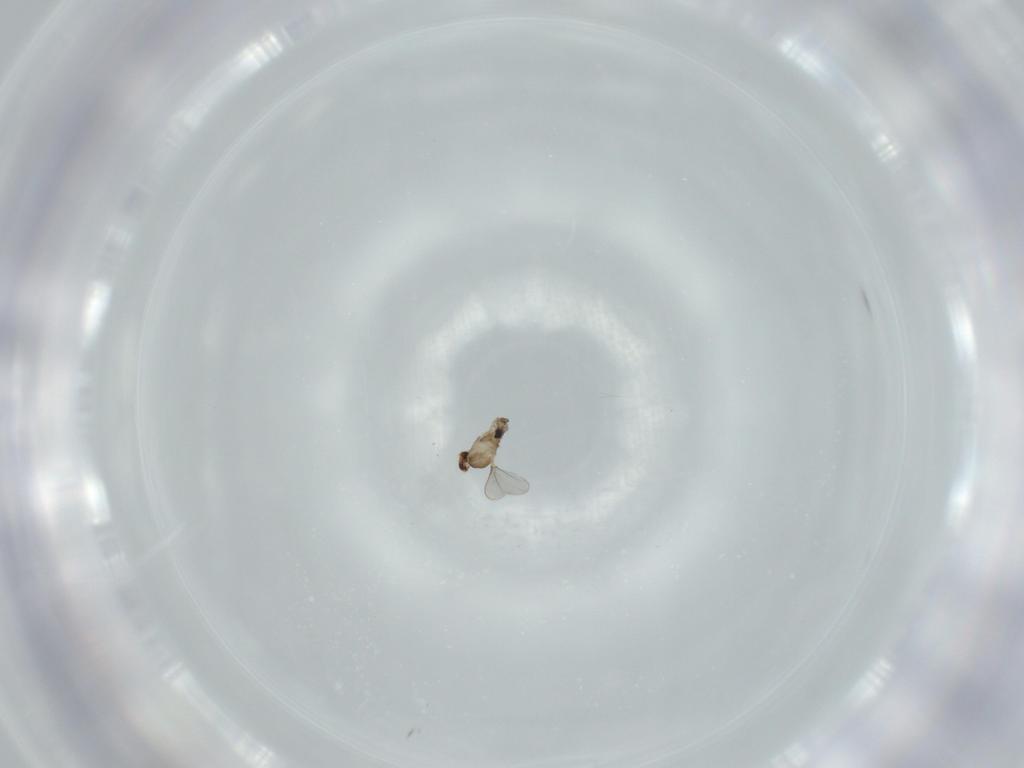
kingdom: Animalia
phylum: Arthropoda
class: Insecta
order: Diptera
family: Cecidomyiidae
